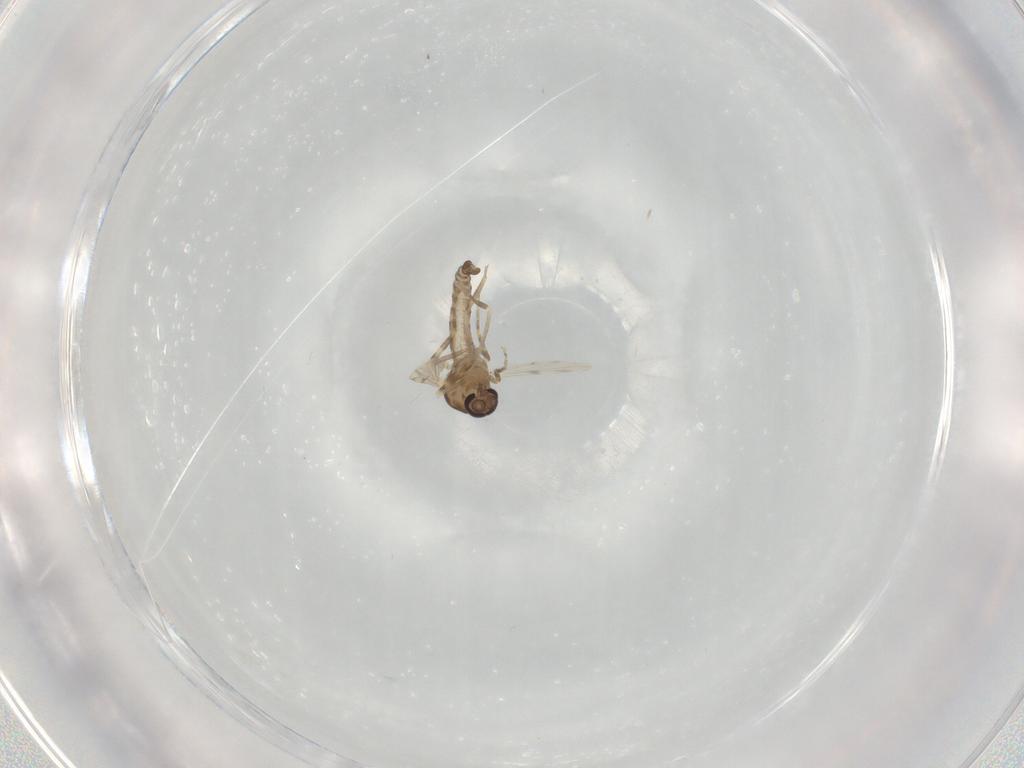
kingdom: Animalia
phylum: Arthropoda
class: Insecta
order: Diptera
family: Ceratopogonidae
